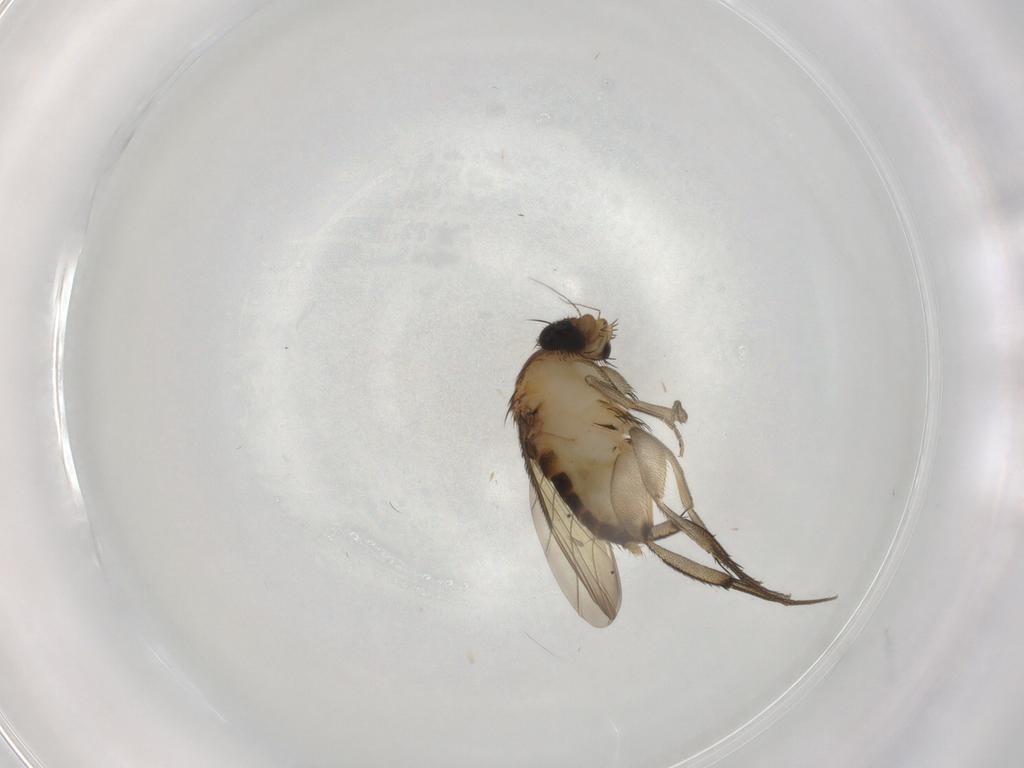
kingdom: Animalia
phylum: Arthropoda
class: Insecta
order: Diptera
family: Phoridae
